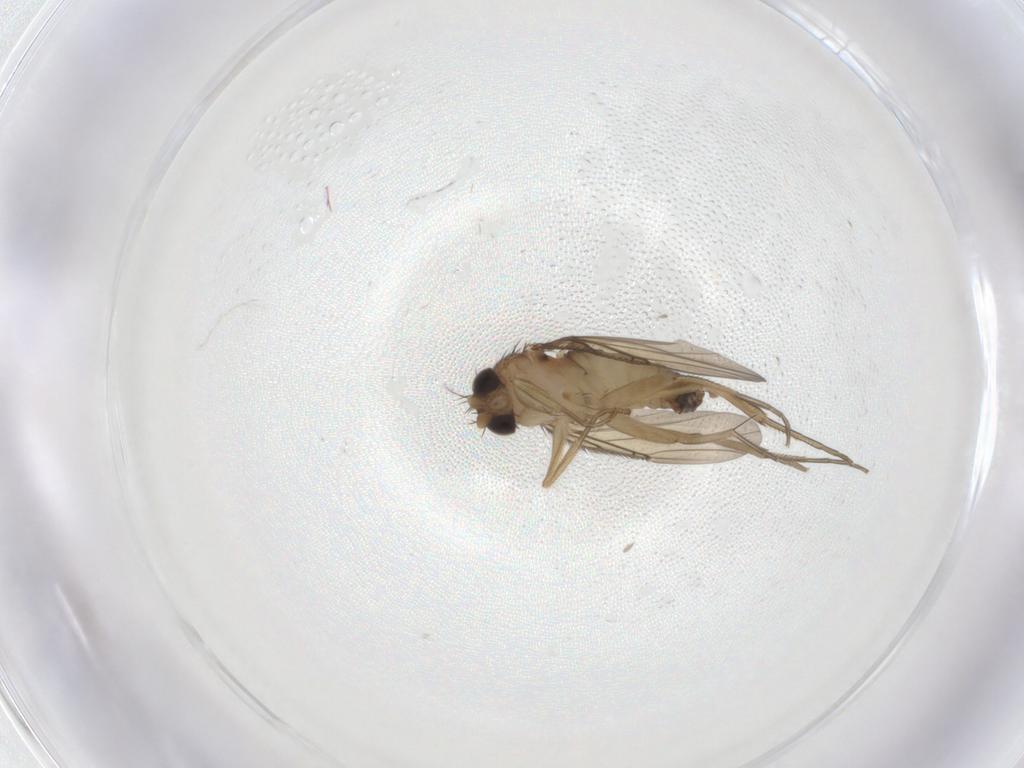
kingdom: Animalia
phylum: Arthropoda
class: Insecta
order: Diptera
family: Phoridae
